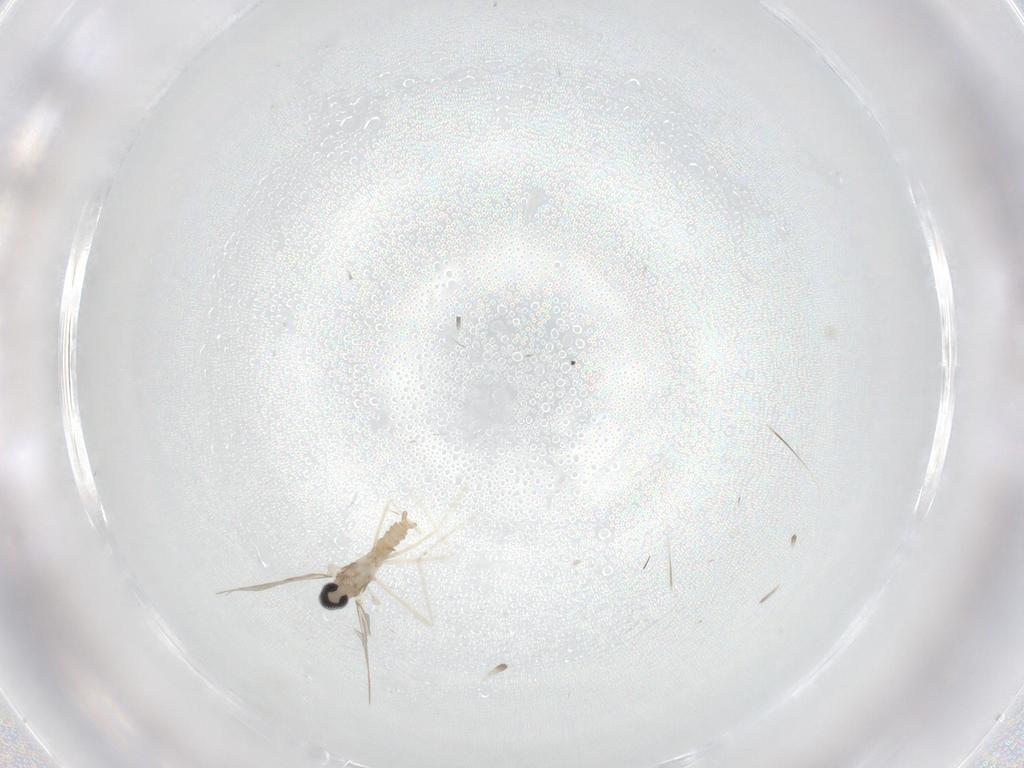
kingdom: Animalia
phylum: Arthropoda
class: Insecta
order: Diptera
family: Cecidomyiidae
